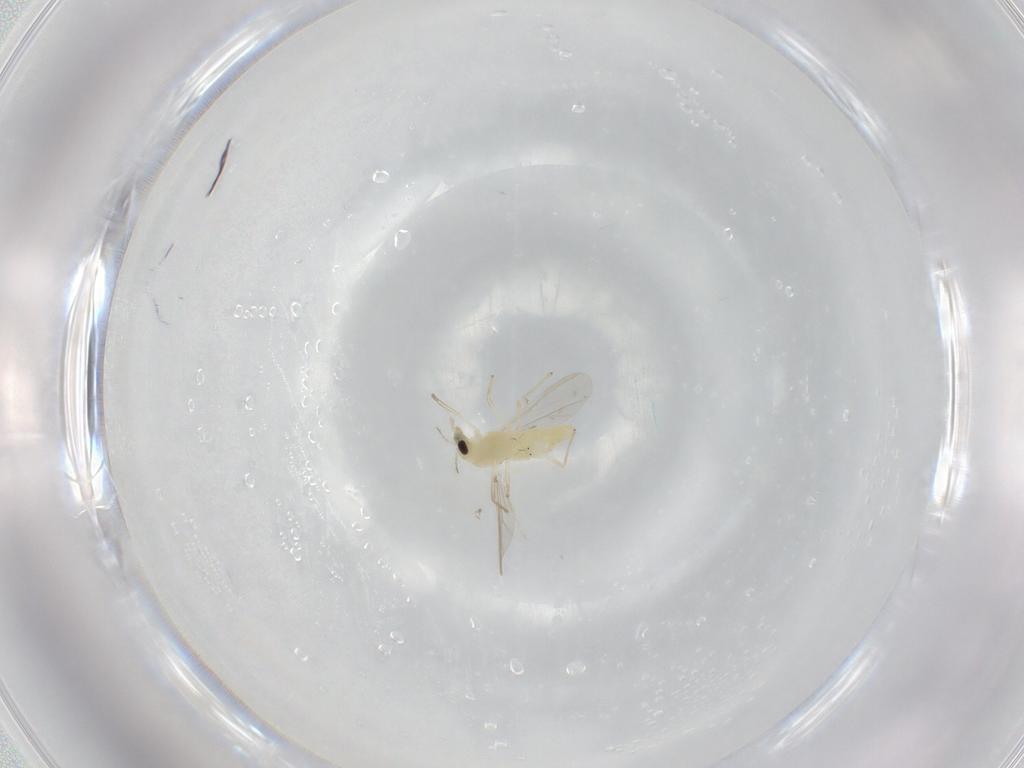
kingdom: Animalia
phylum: Arthropoda
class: Insecta
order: Diptera
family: Chironomidae
